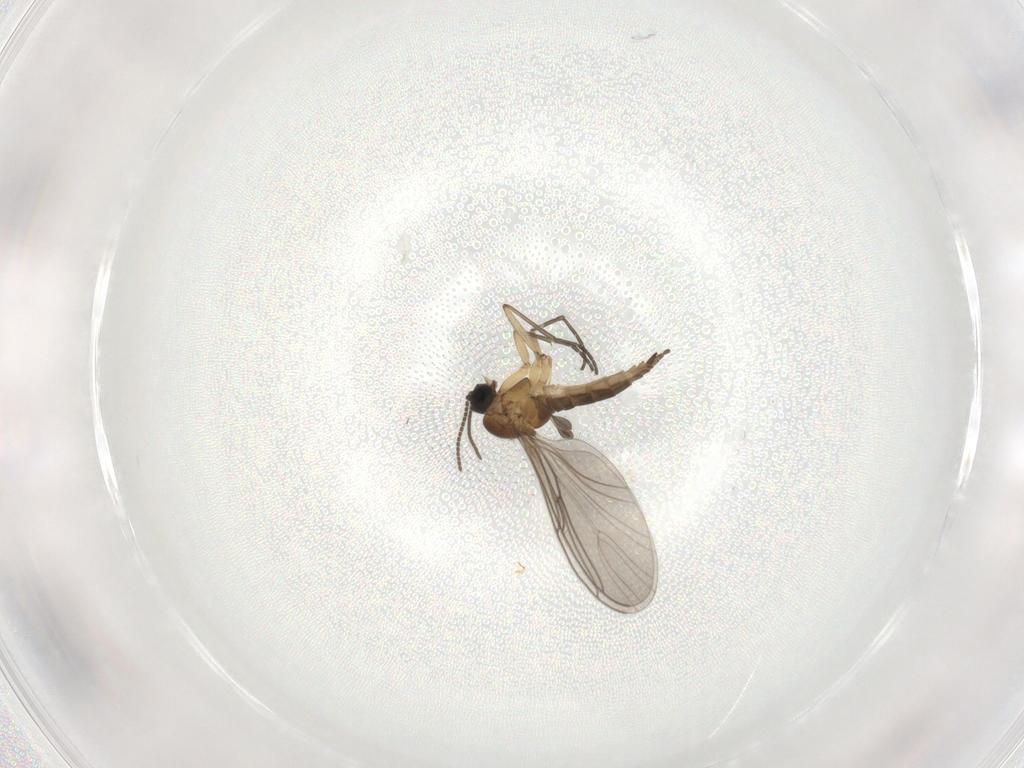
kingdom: Animalia
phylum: Arthropoda
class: Insecta
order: Diptera
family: Sciaridae
